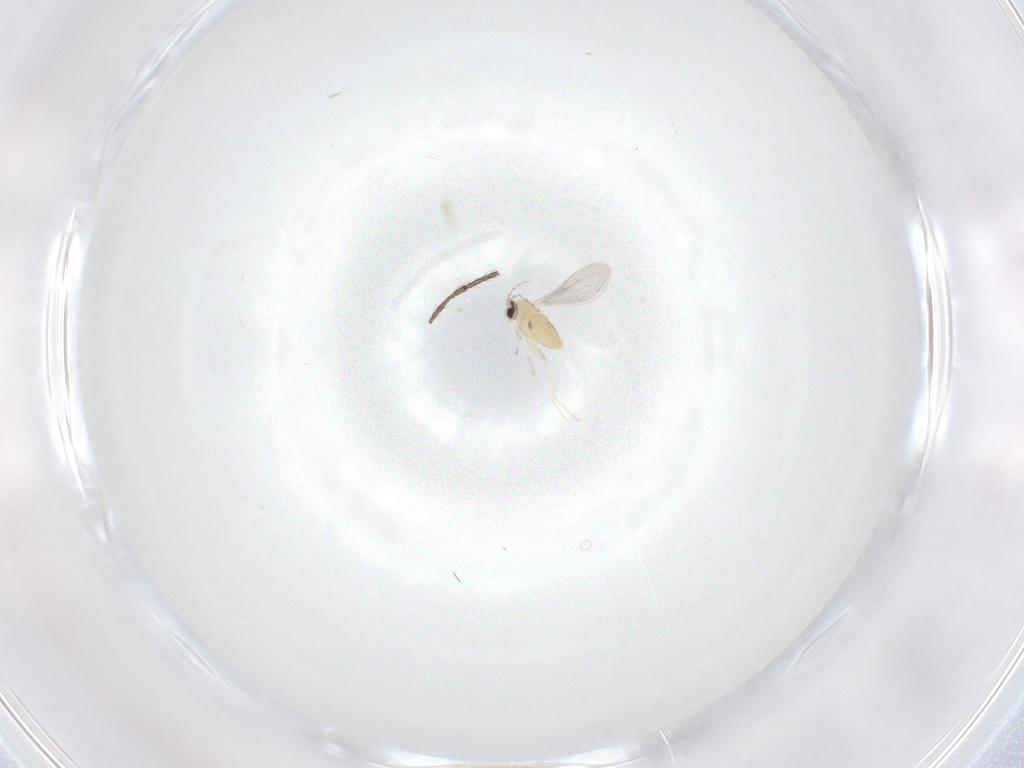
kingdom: Animalia
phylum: Arthropoda
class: Insecta
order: Diptera
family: Cecidomyiidae
